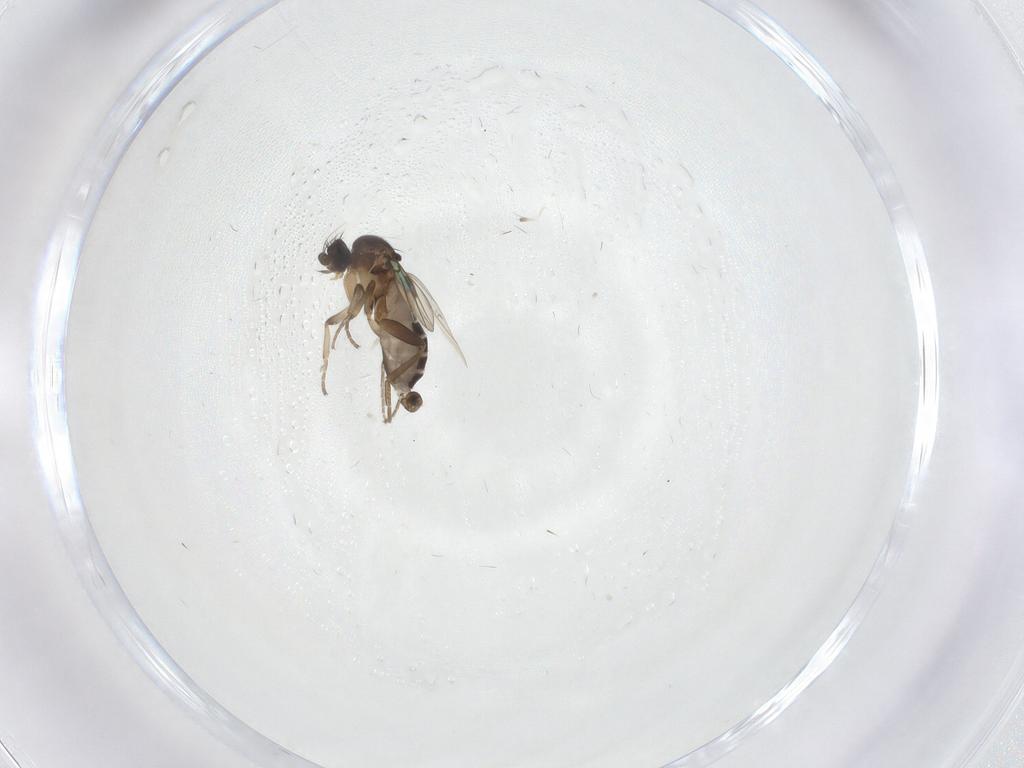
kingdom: Animalia
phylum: Arthropoda
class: Insecta
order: Diptera
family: Phoridae
